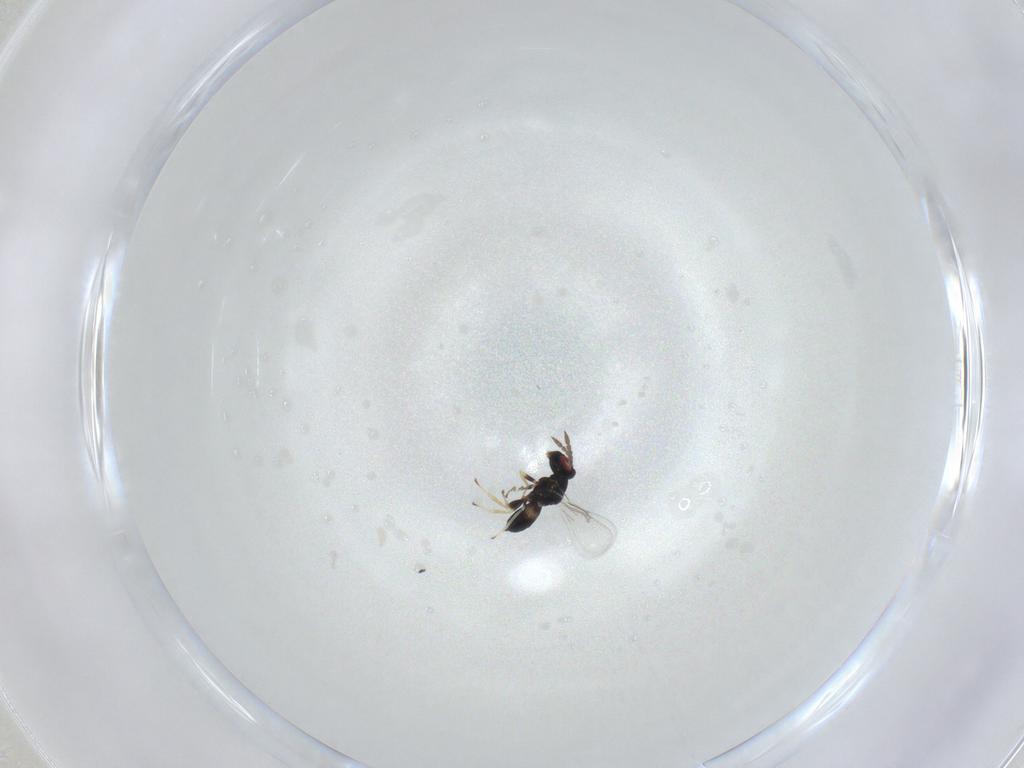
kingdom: Animalia
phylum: Arthropoda
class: Insecta
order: Hymenoptera
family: Eulophidae
